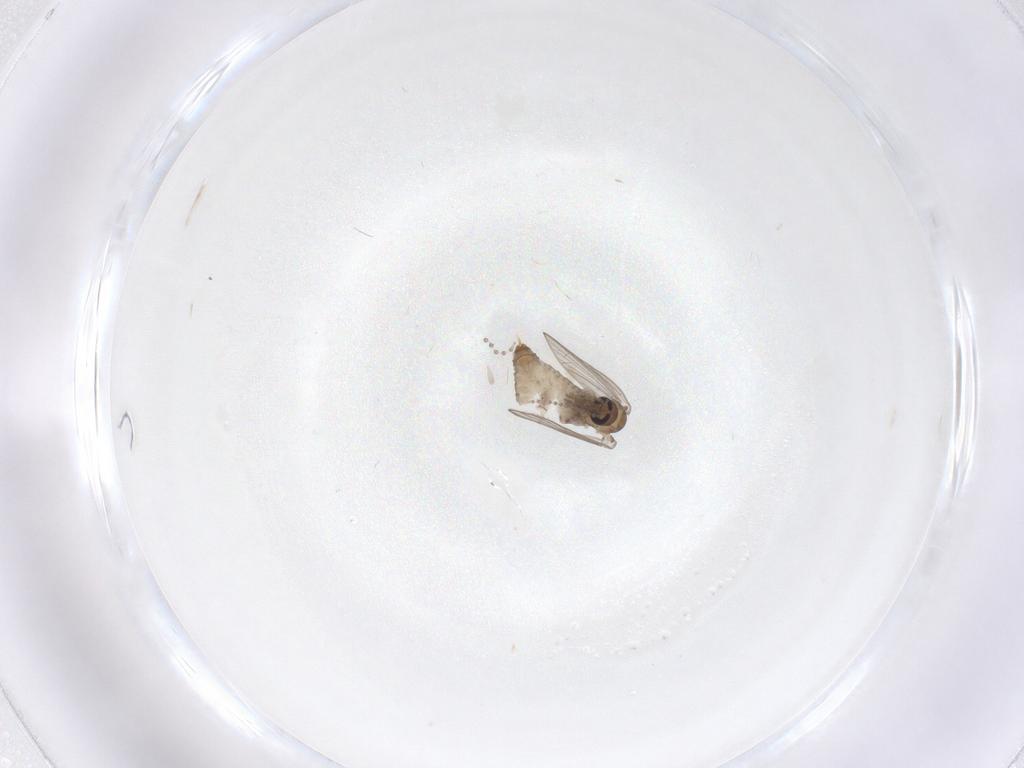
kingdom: Animalia
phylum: Arthropoda
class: Insecta
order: Diptera
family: Psychodidae
